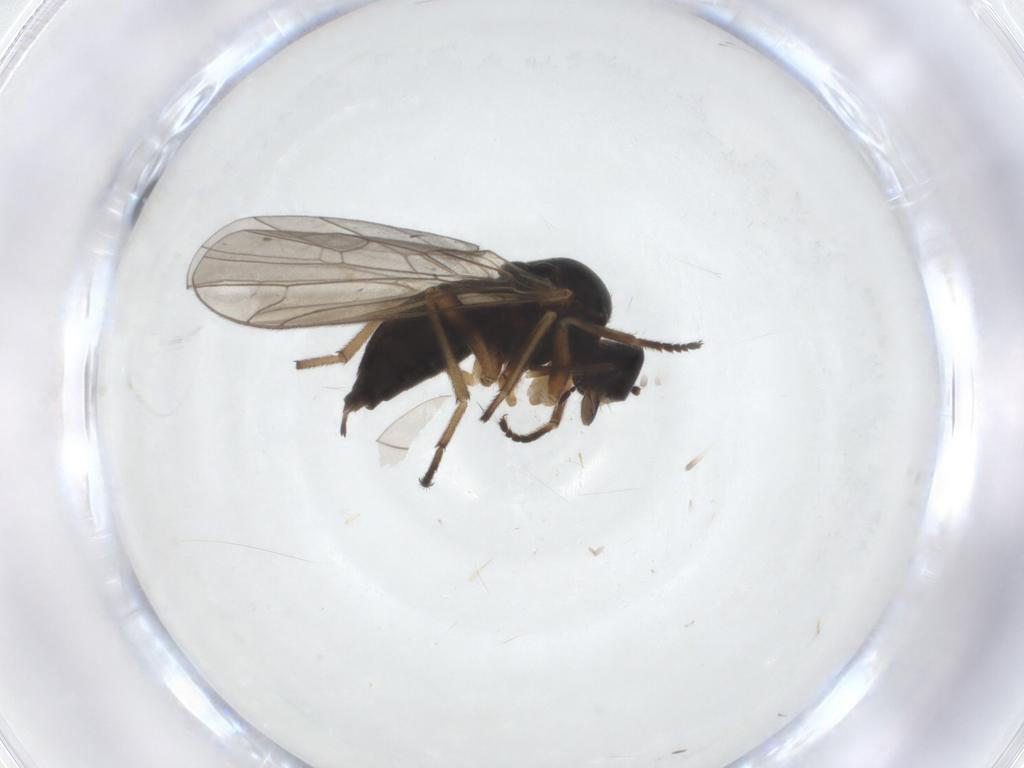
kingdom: Animalia
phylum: Arthropoda
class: Insecta
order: Diptera
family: Empididae
